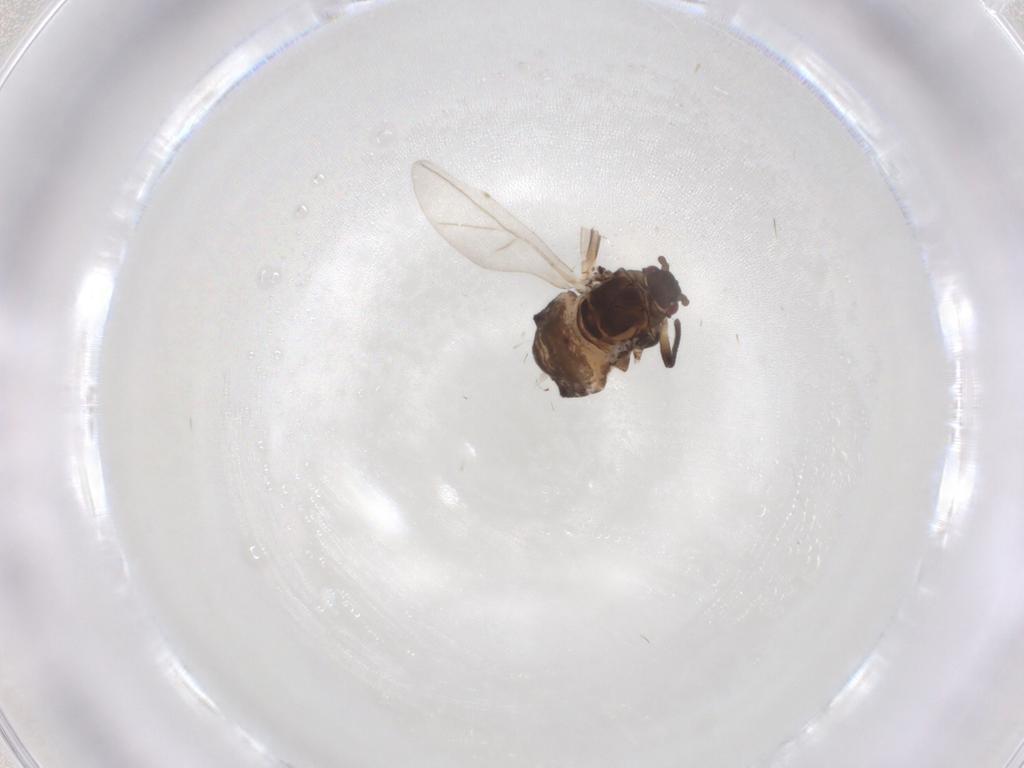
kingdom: Animalia
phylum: Arthropoda
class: Insecta
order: Hemiptera
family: Aphididae
